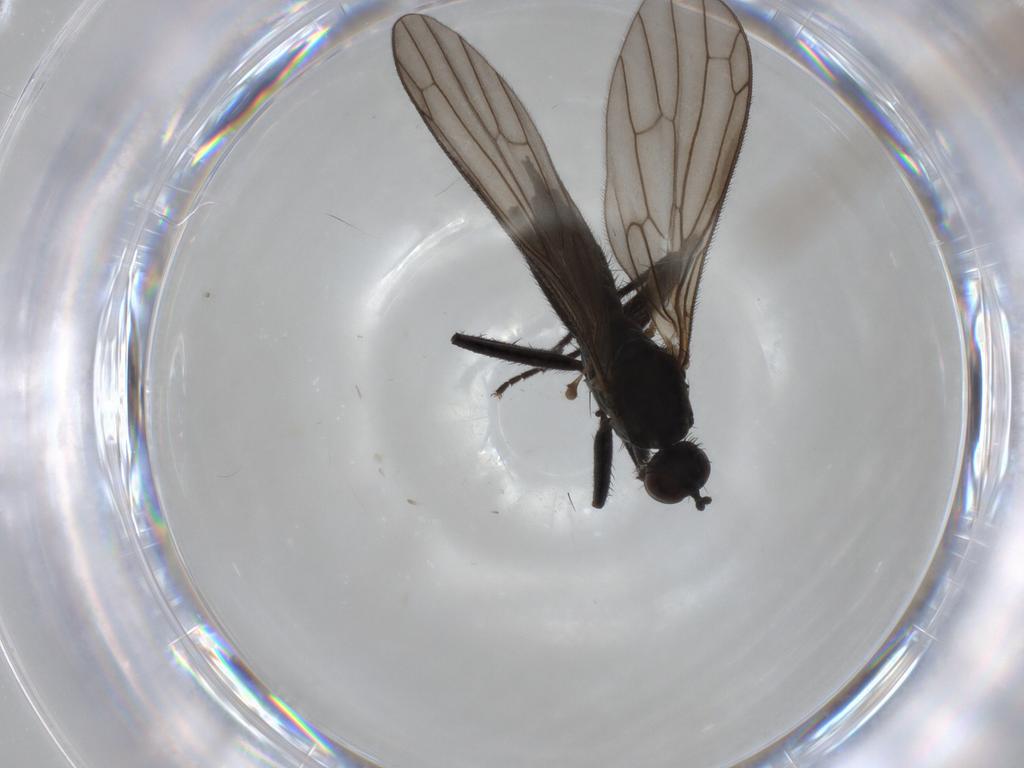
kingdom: Animalia
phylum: Arthropoda
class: Insecta
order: Diptera
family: Empididae
